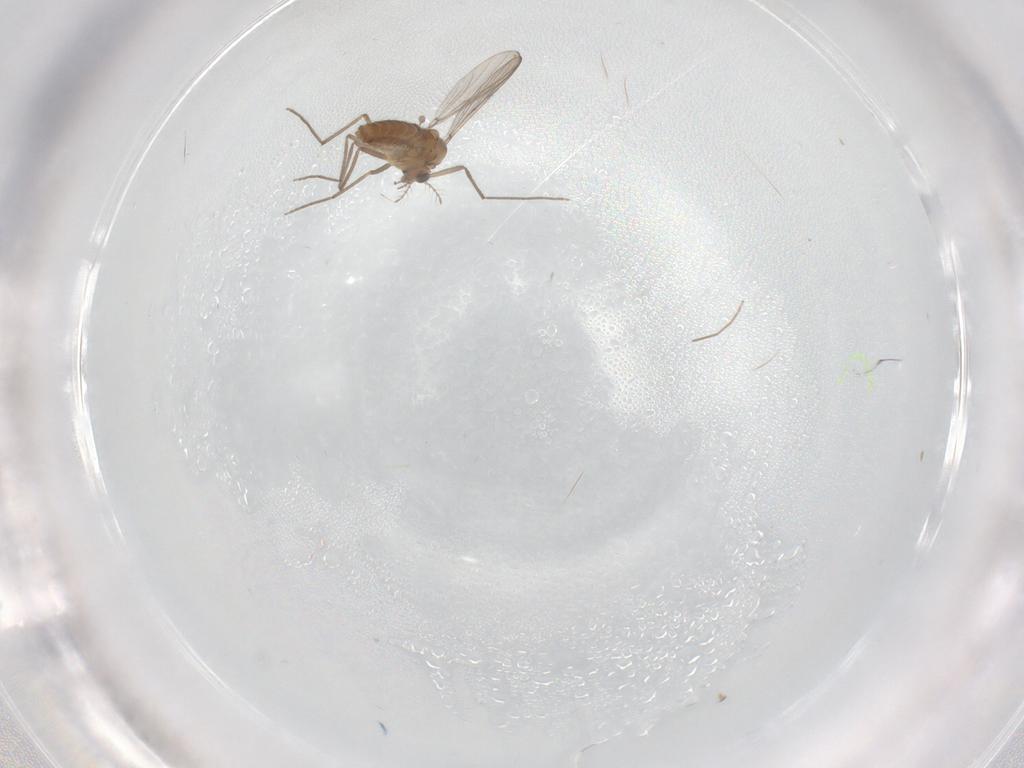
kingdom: Animalia
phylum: Arthropoda
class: Insecta
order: Diptera
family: Chironomidae
